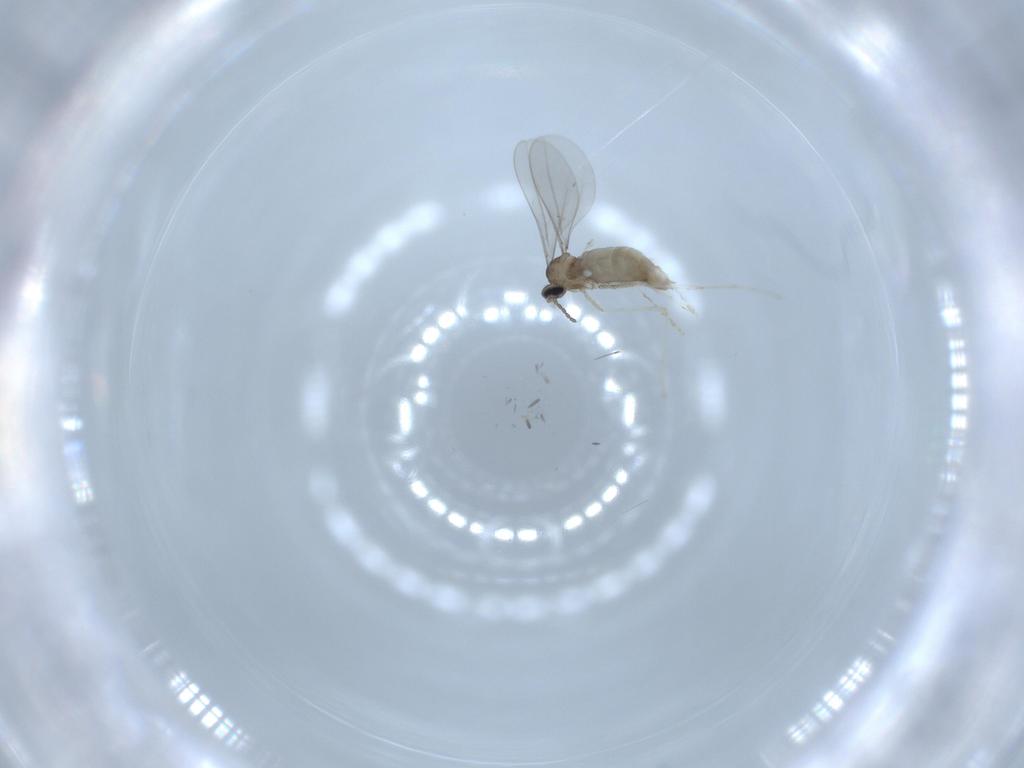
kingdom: Animalia
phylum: Arthropoda
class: Insecta
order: Diptera
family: Sciaridae
